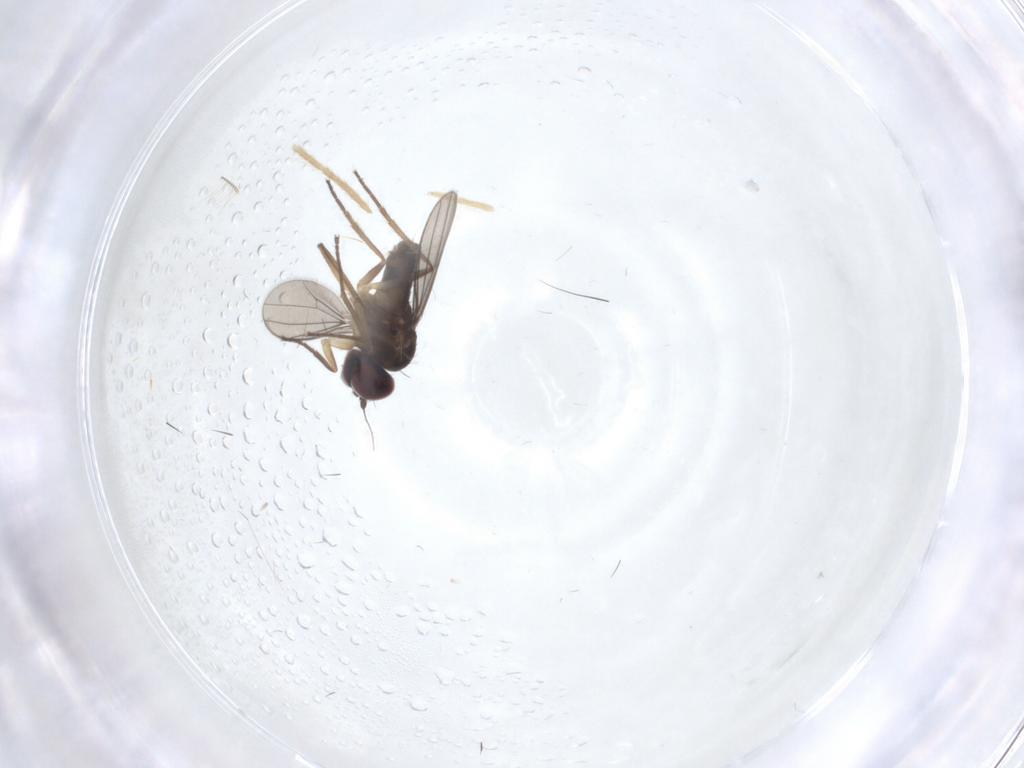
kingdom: Animalia
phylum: Arthropoda
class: Insecta
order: Diptera
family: Dolichopodidae
